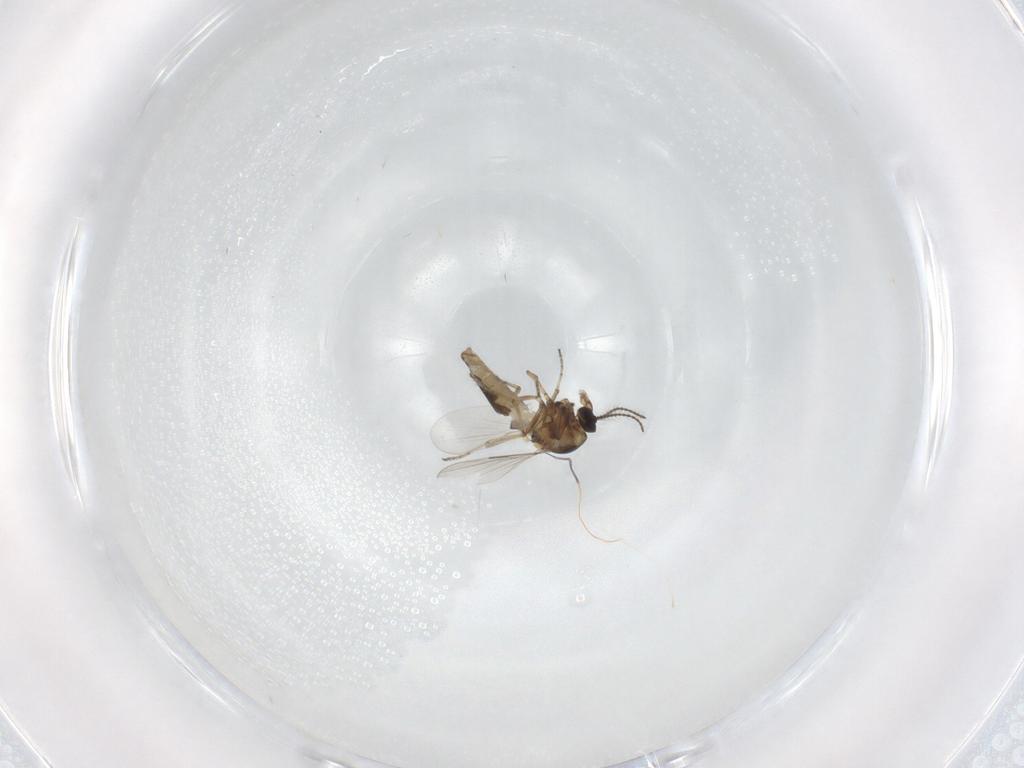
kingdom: Animalia
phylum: Arthropoda
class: Insecta
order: Diptera
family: Ceratopogonidae
